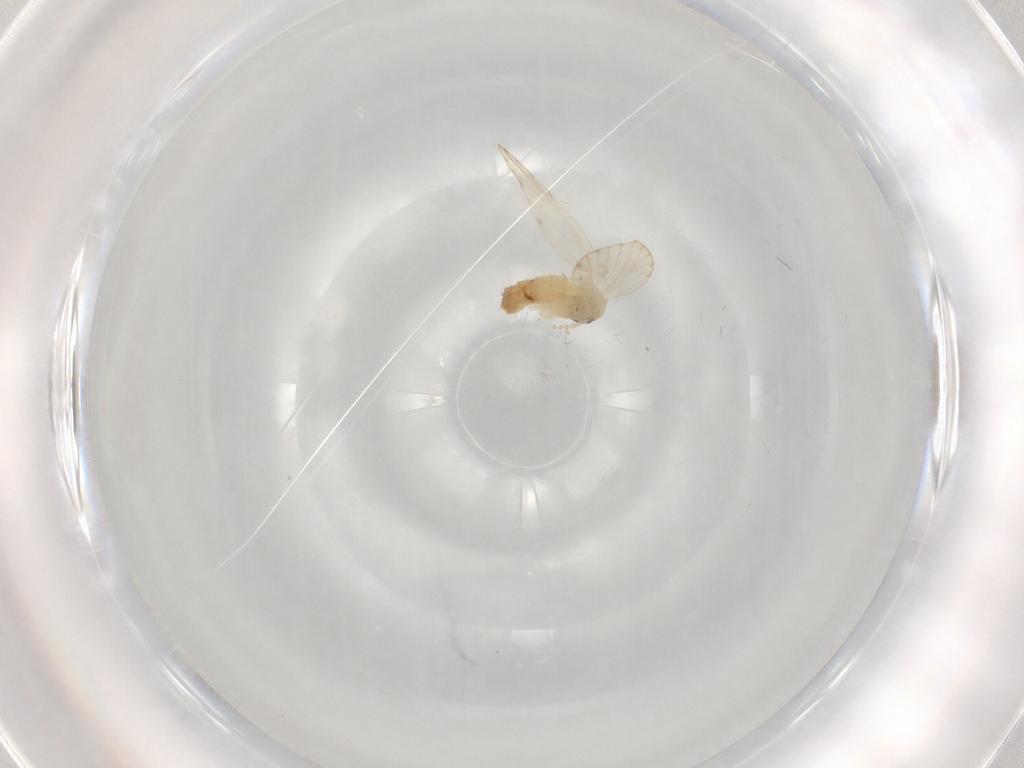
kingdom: Animalia
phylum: Arthropoda
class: Insecta
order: Diptera
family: Psychodidae
